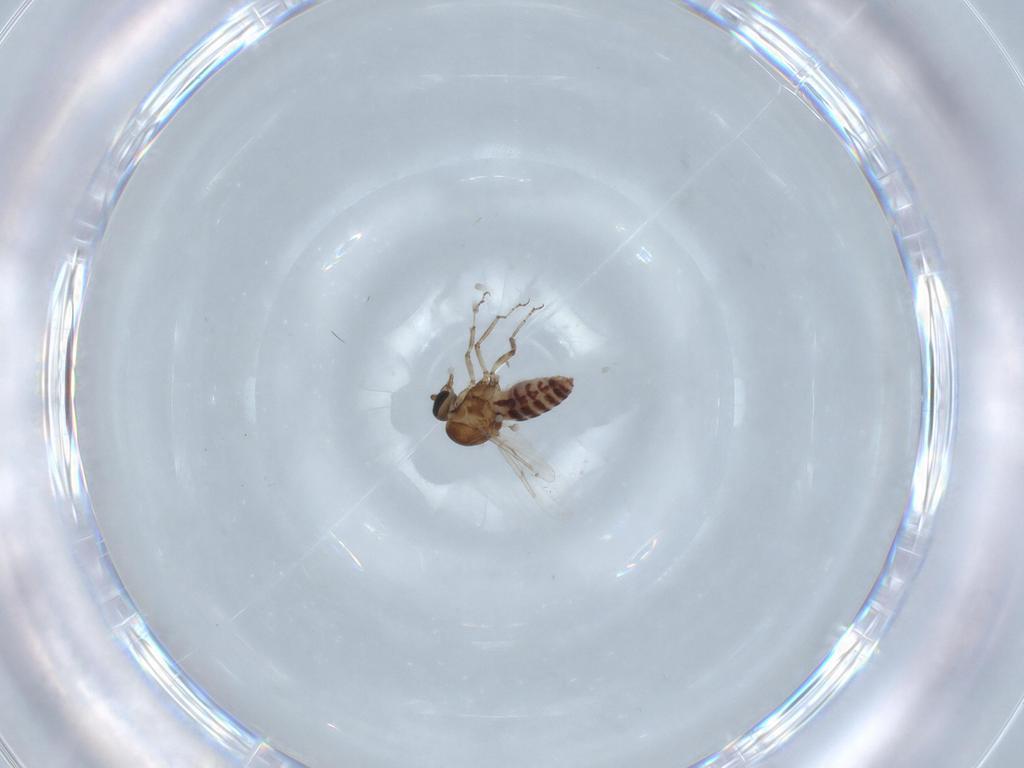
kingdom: Animalia
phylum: Arthropoda
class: Insecta
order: Diptera
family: Ceratopogonidae
